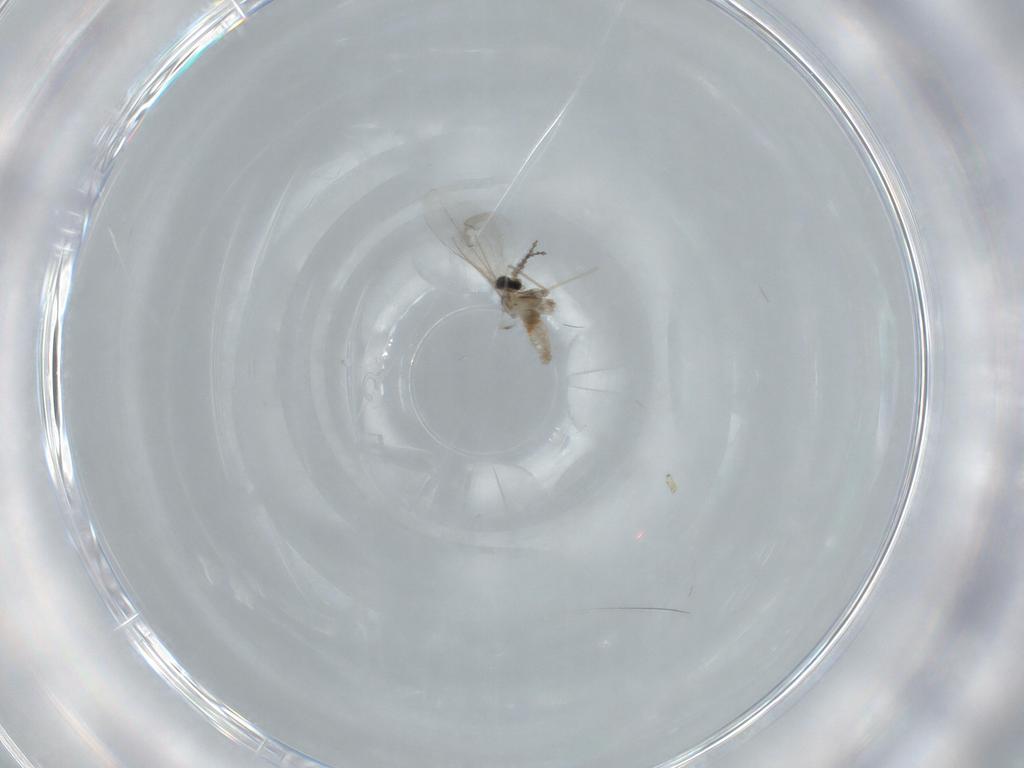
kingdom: Animalia
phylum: Arthropoda
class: Insecta
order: Diptera
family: Cecidomyiidae
